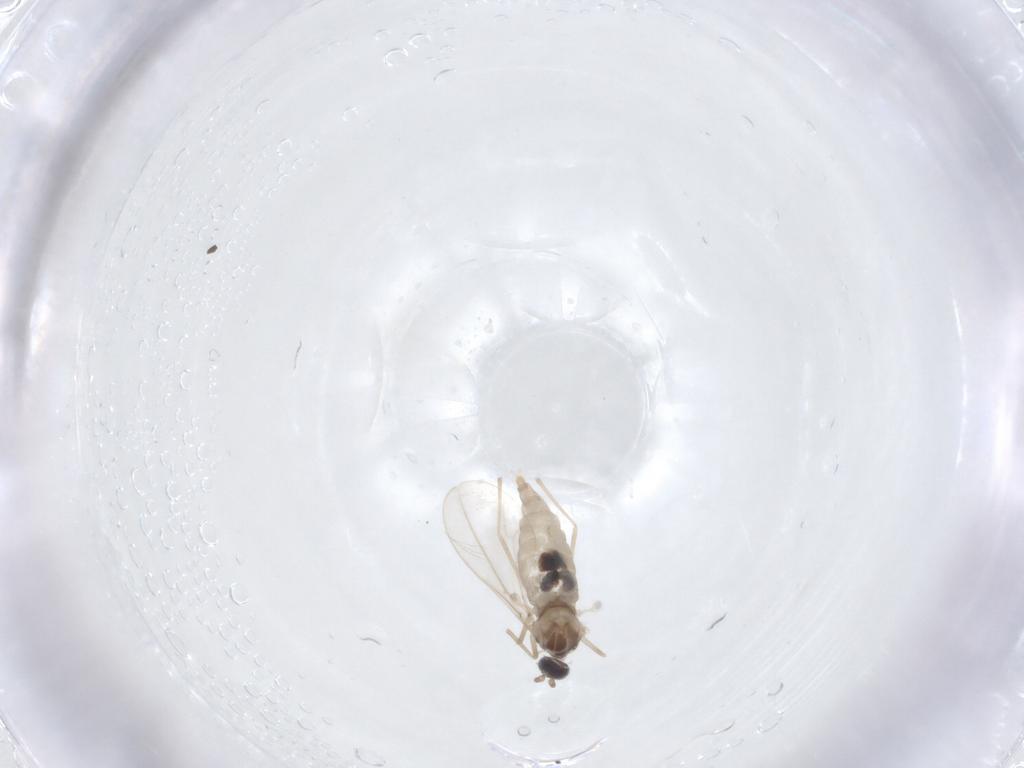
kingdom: Animalia
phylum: Arthropoda
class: Insecta
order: Diptera
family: Cecidomyiidae
